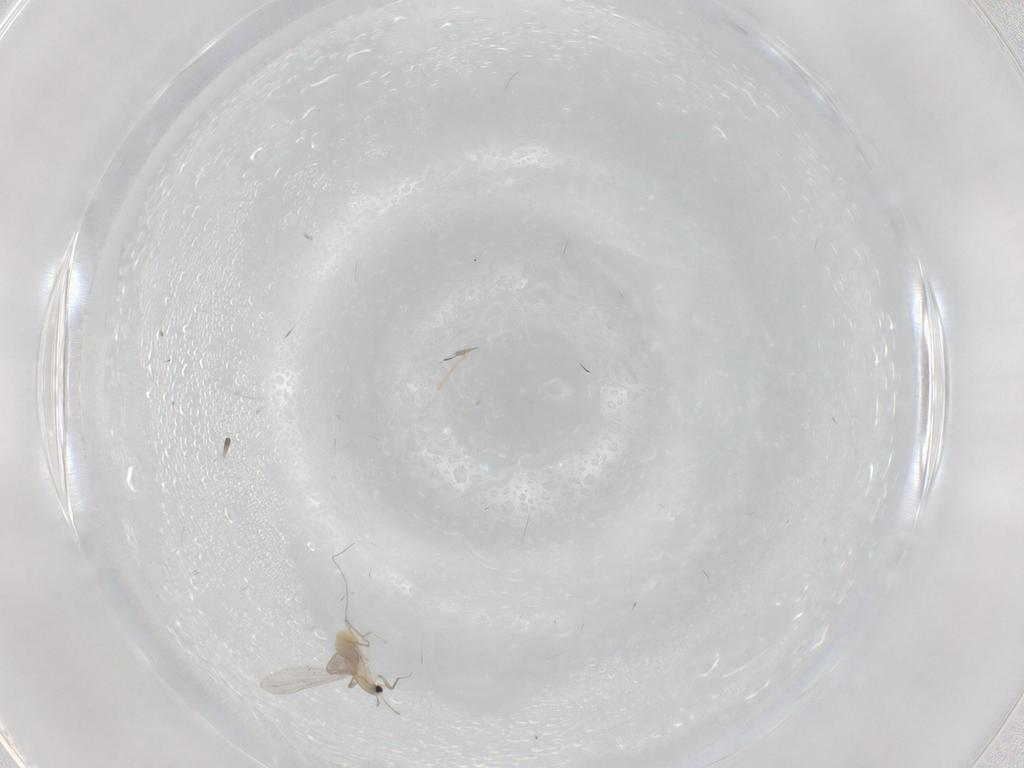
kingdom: Animalia
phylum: Arthropoda
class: Insecta
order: Diptera
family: Chironomidae
